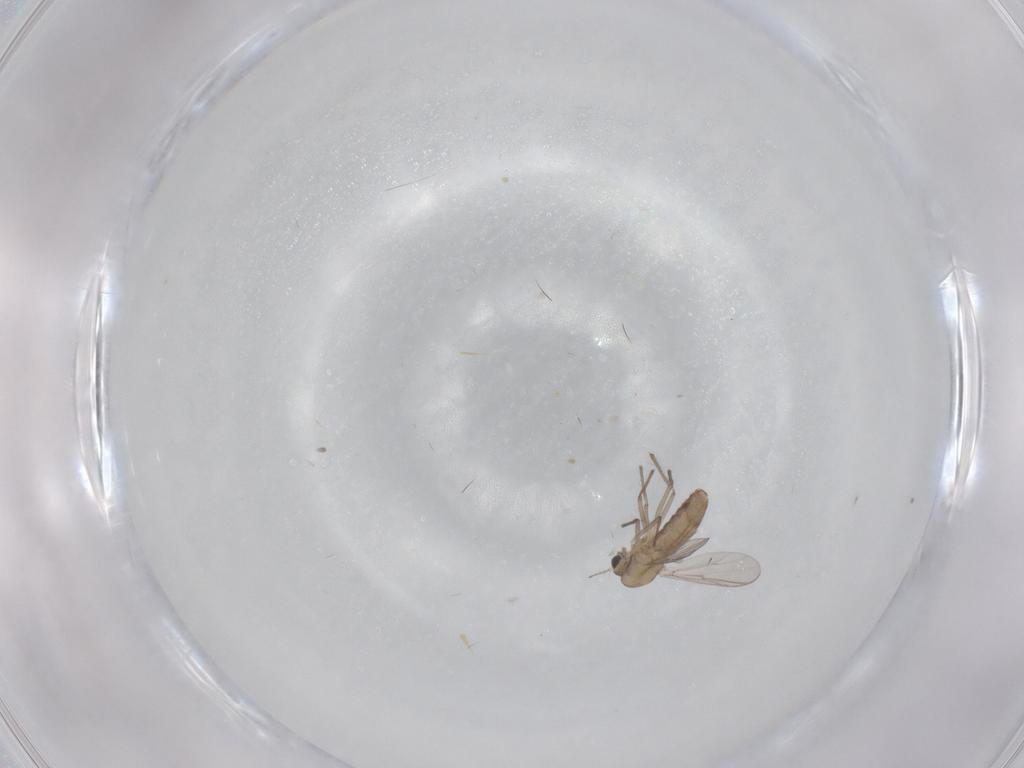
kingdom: Animalia
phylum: Arthropoda
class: Insecta
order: Diptera
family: Chironomidae
